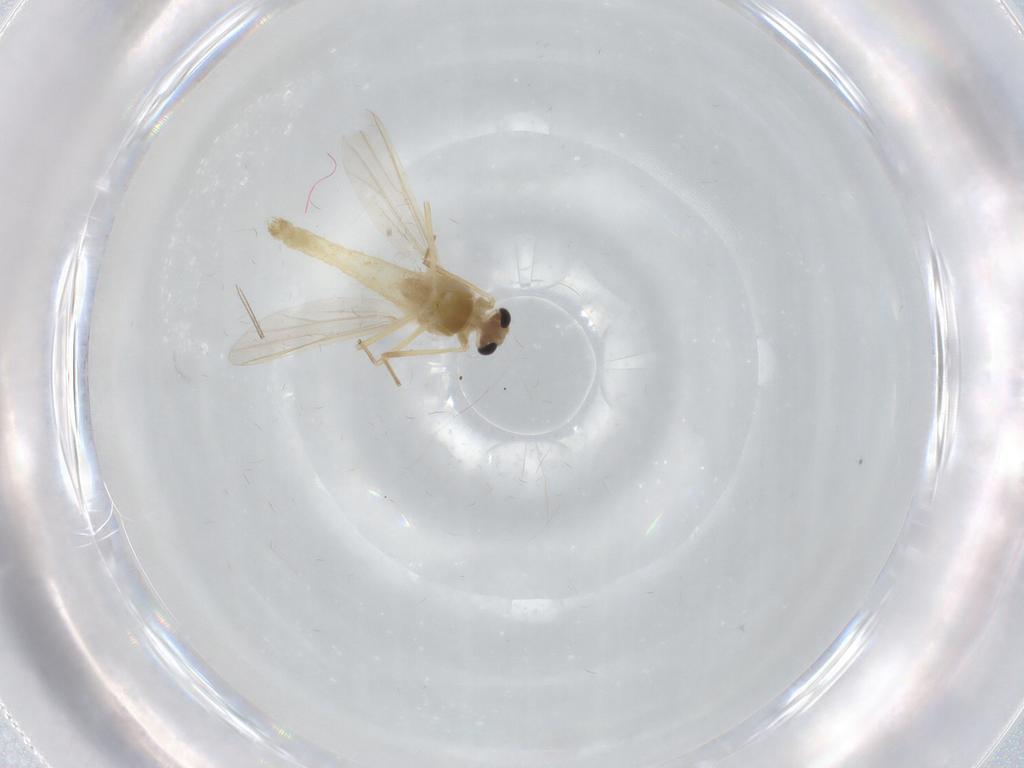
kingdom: Animalia
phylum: Arthropoda
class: Insecta
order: Diptera
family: Chironomidae
